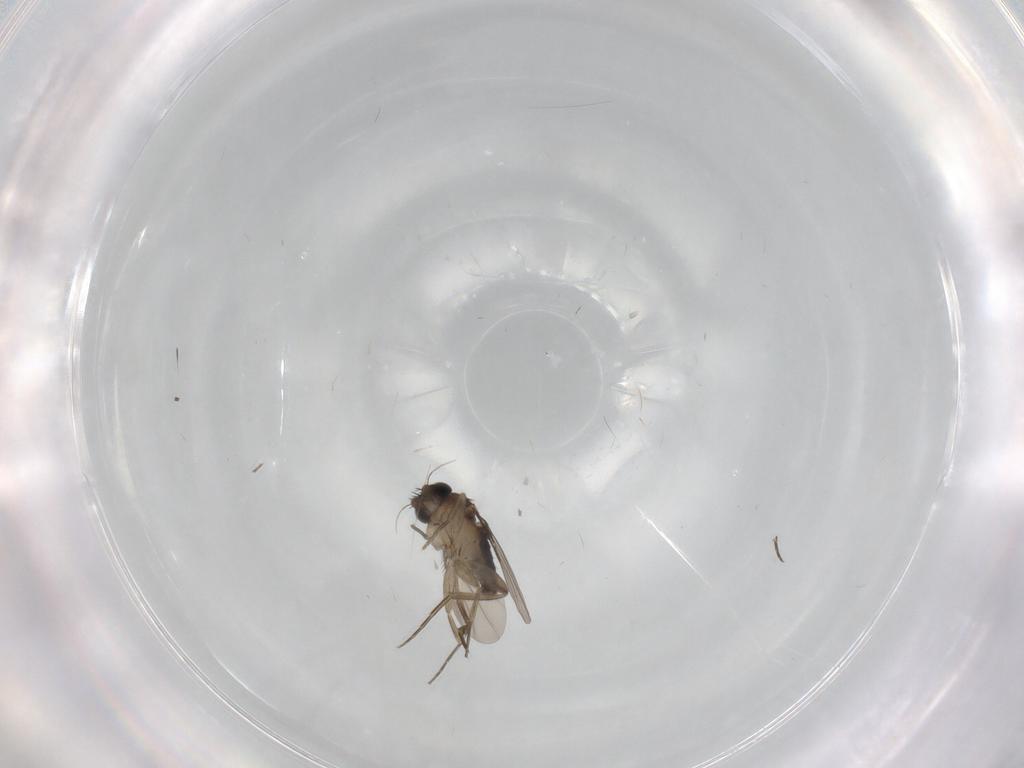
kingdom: Animalia
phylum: Arthropoda
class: Insecta
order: Diptera
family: Phoridae
